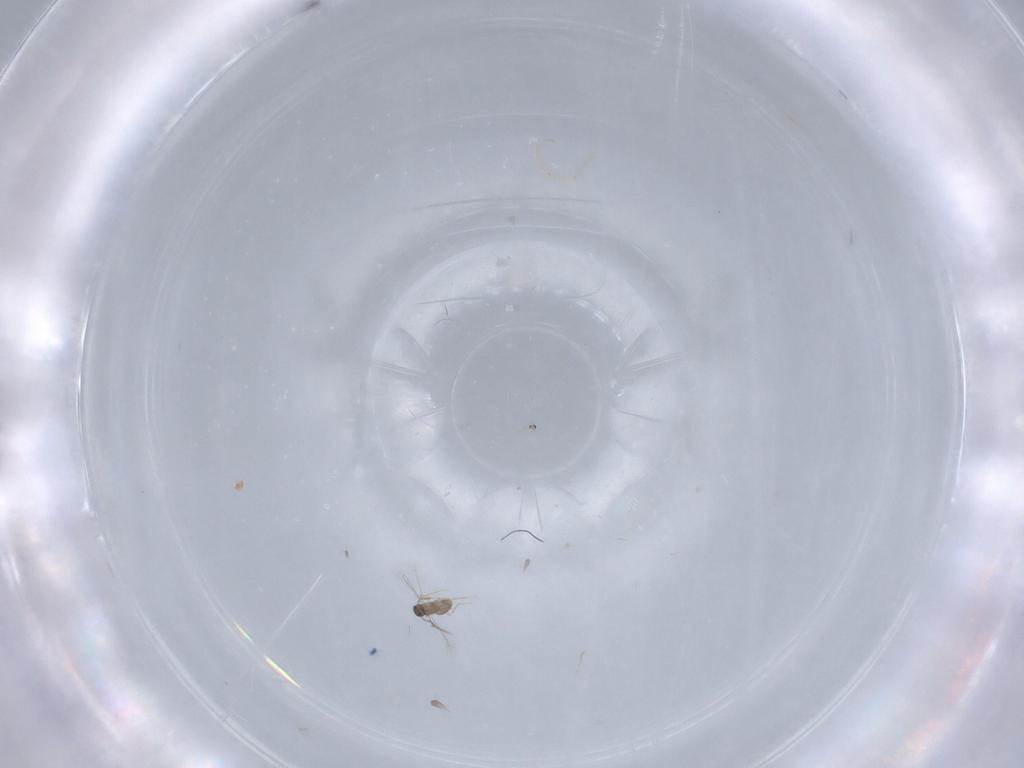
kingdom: Animalia
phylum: Arthropoda
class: Insecta
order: Hymenoptera
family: Mymaridae
